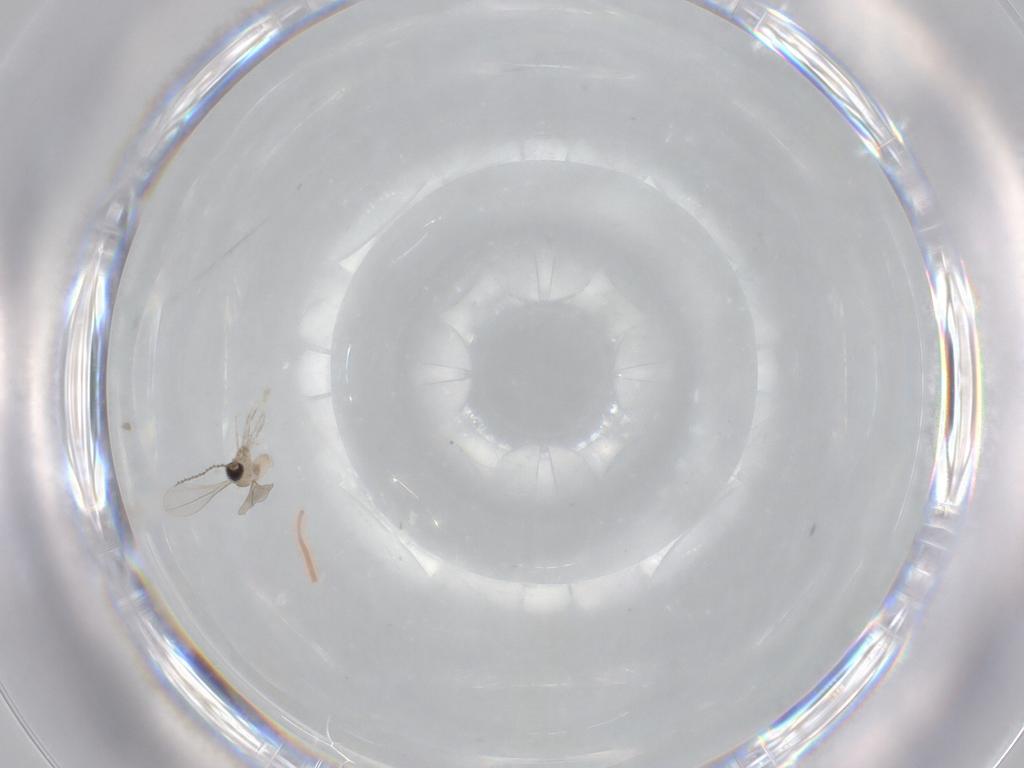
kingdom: Animalia
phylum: Arthropoda
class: Insecta
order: Diptera
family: Cecidomyiidae
